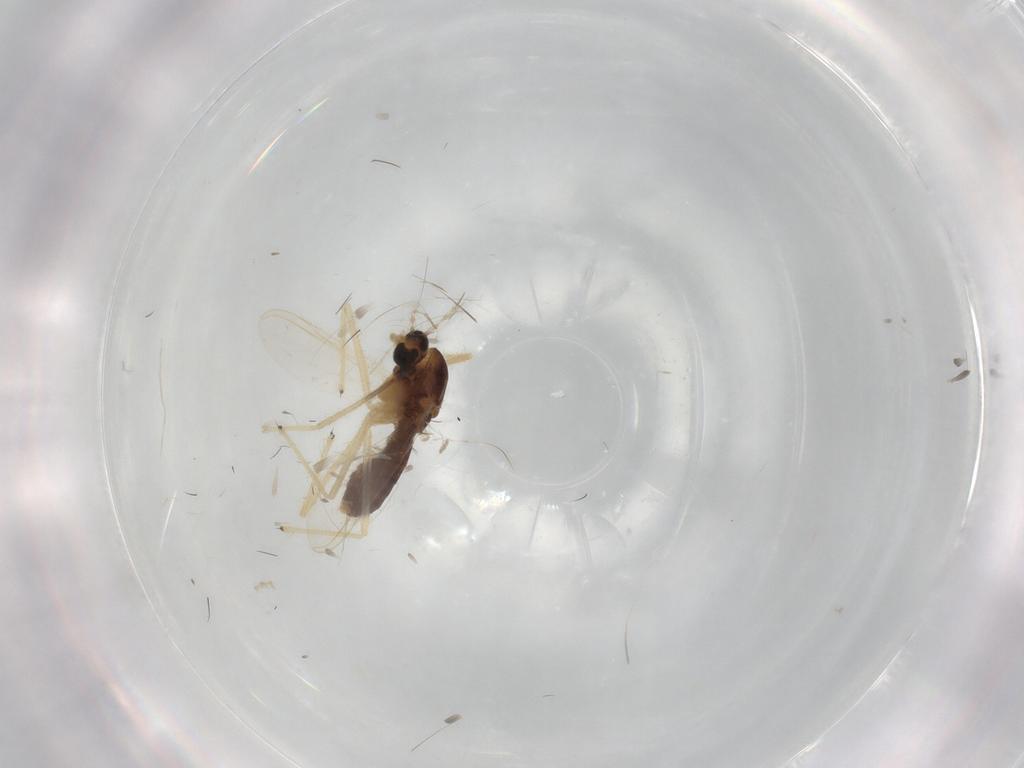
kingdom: Animalia
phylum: Arthropoda
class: Insecta
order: Diptera
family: Chironomidae
